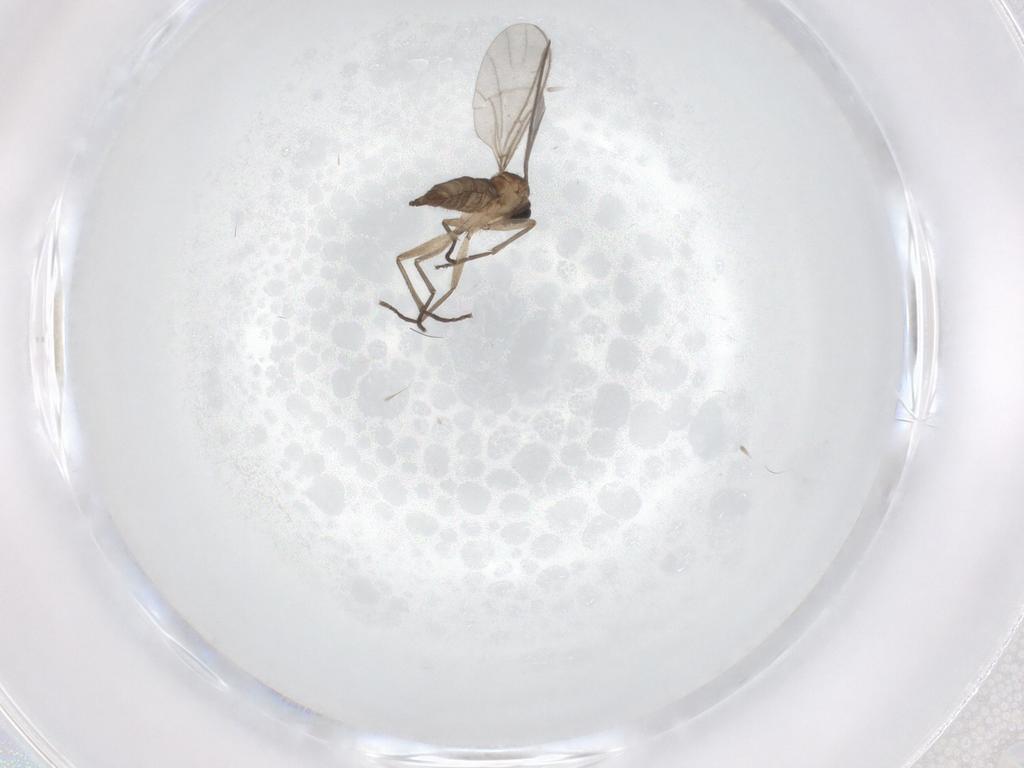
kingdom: Animalia
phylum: Arthropoda
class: Insecta
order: Diptera
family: Sciaridae
